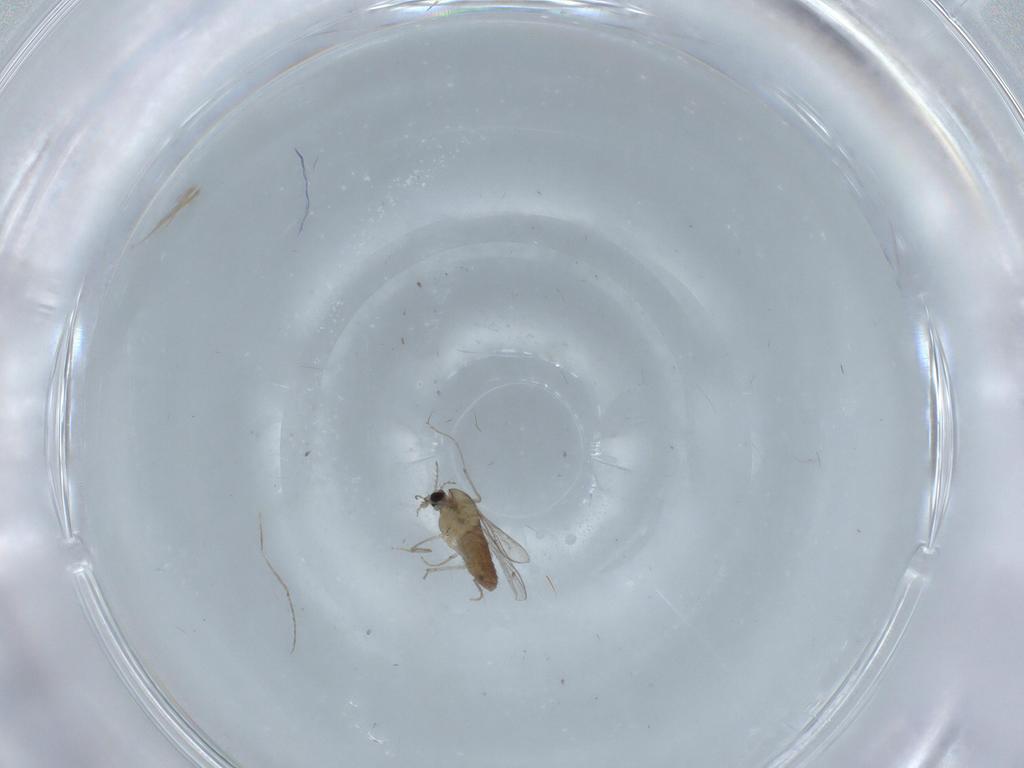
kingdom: Animalia
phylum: Arthropoda
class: Insecta
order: Diptera
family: Chironomidae
